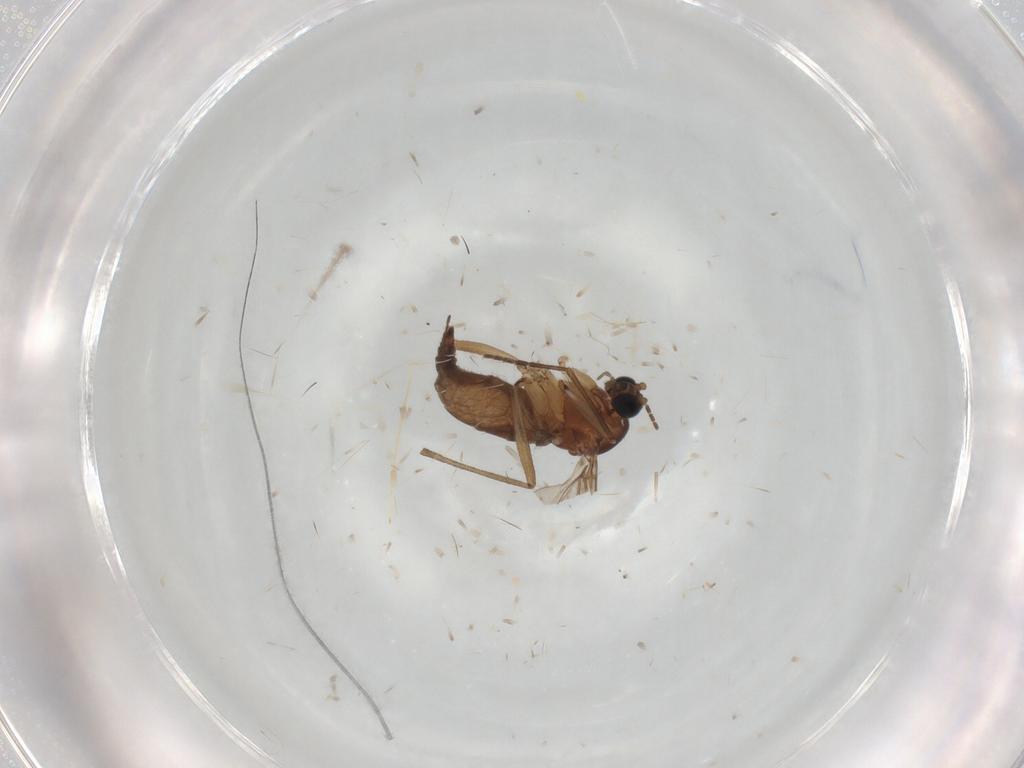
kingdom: Animalia
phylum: Arthropoda
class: Insecta
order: Diptera
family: Sciaridae
